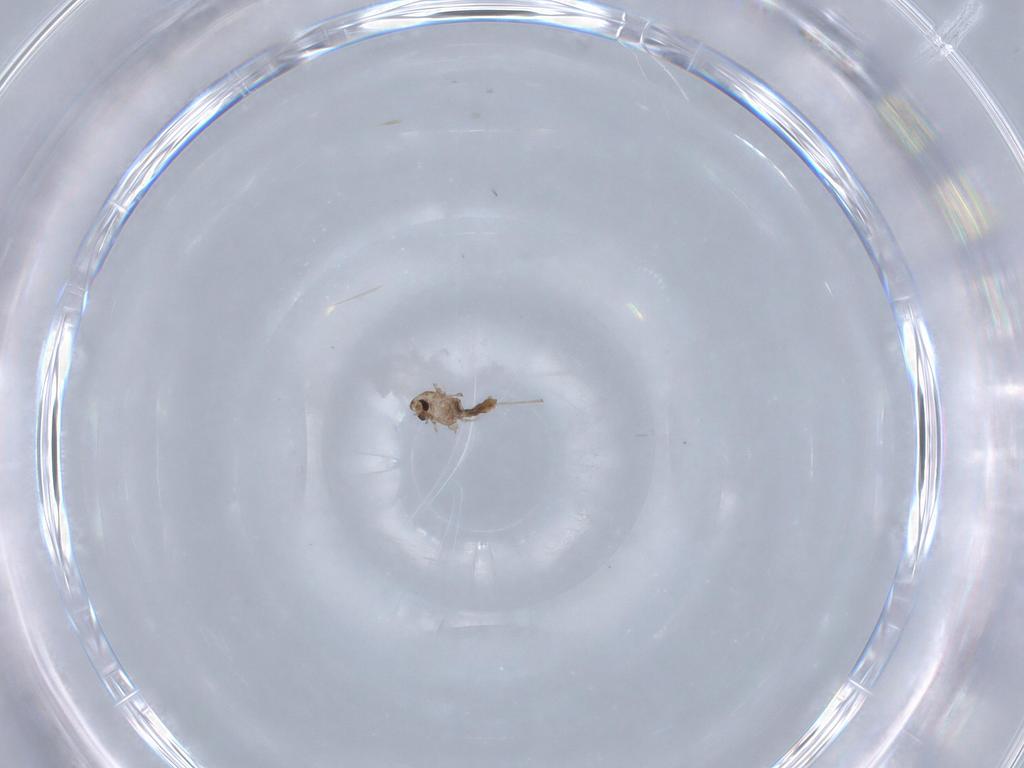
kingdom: Animalia
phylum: Arthropoda
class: Insecta
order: Diptera
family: Chironomidae
